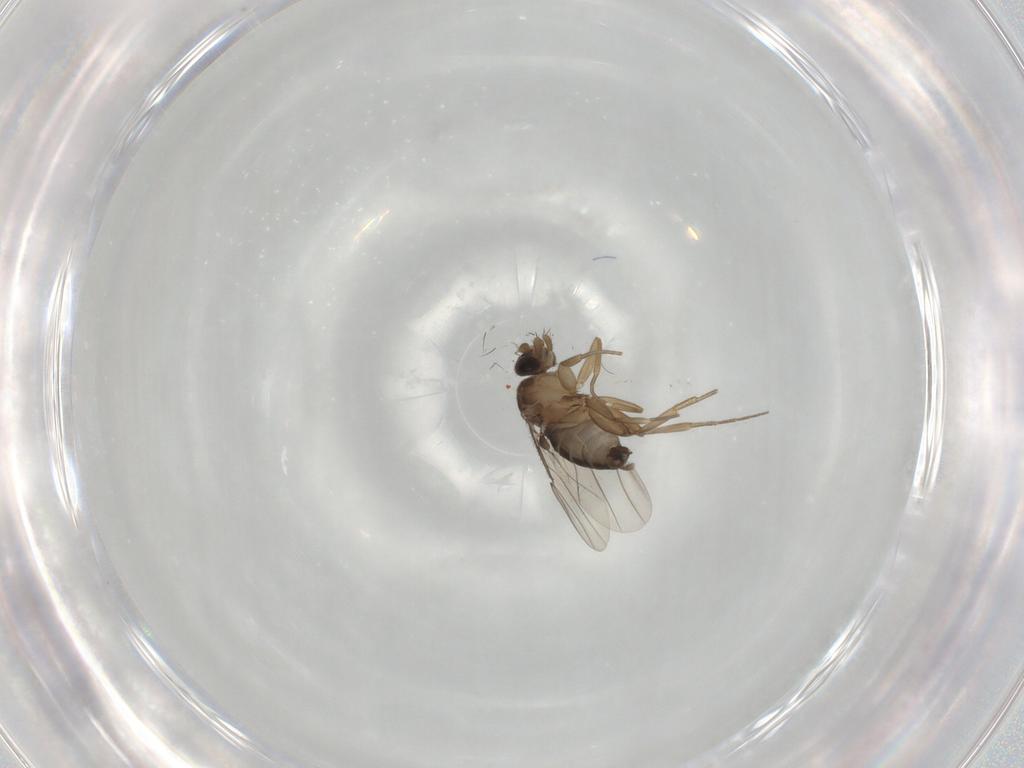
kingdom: Animalia
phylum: Arthropoda
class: Insecta
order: Diptera
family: Phoridae
